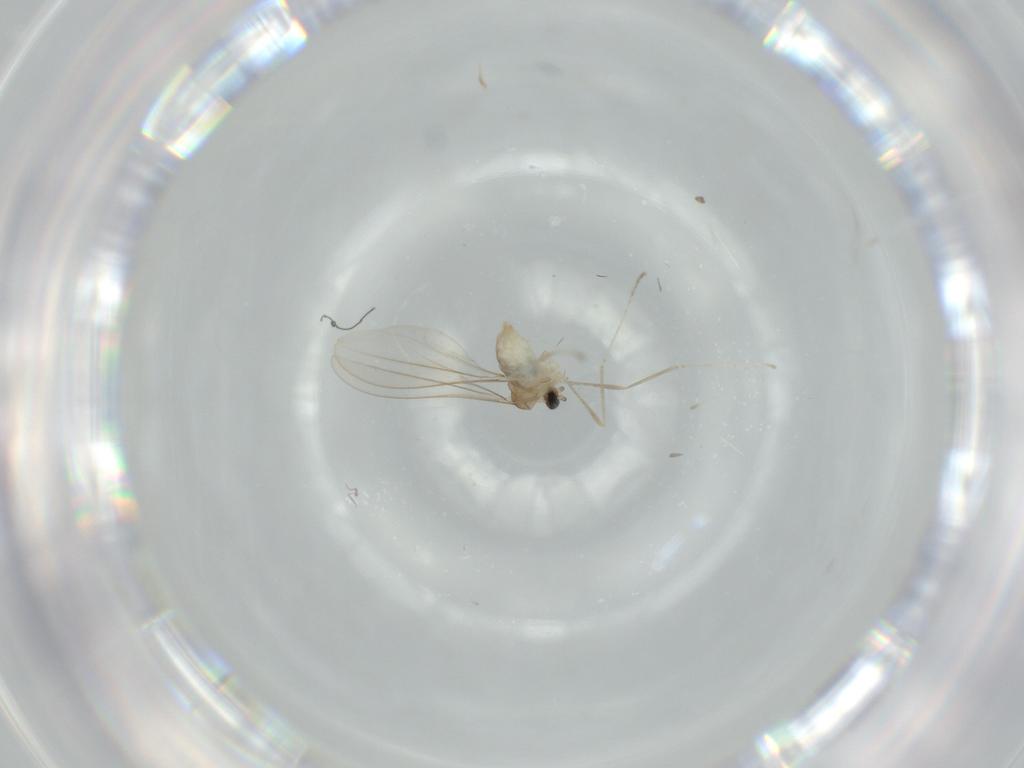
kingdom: Animalia
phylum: Arthropoda
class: Insecta
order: Diptera
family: Cecidomyiidae
